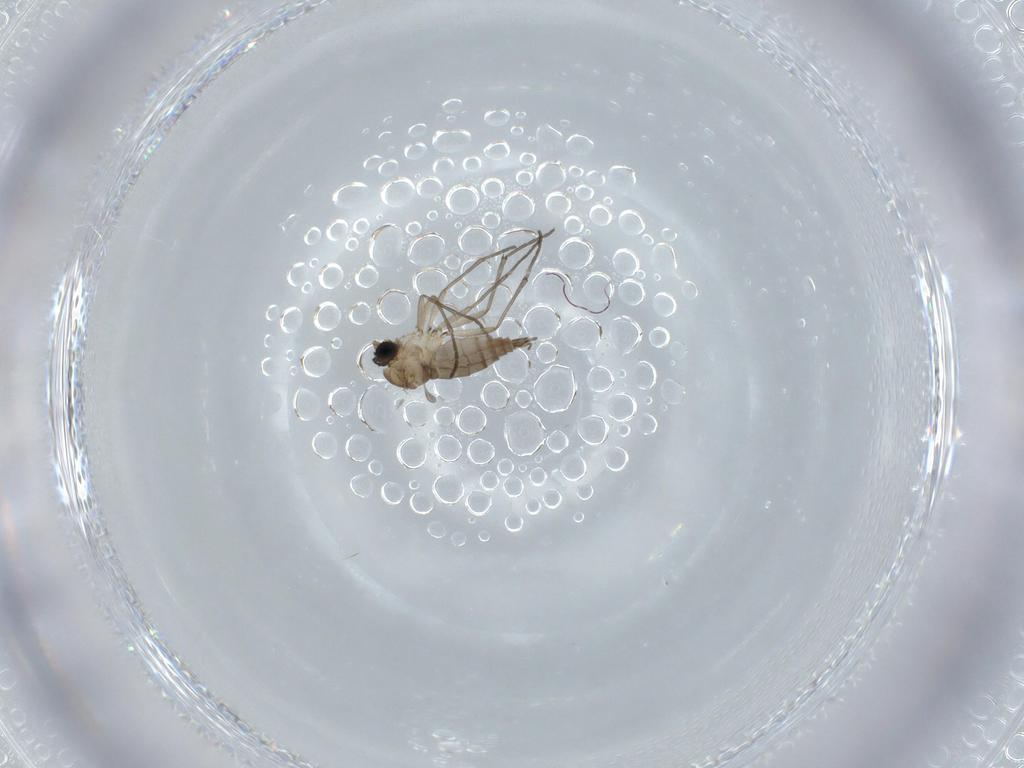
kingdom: Animalia
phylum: Arthropoda
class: Insecta
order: Diptera
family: Sciaridae
